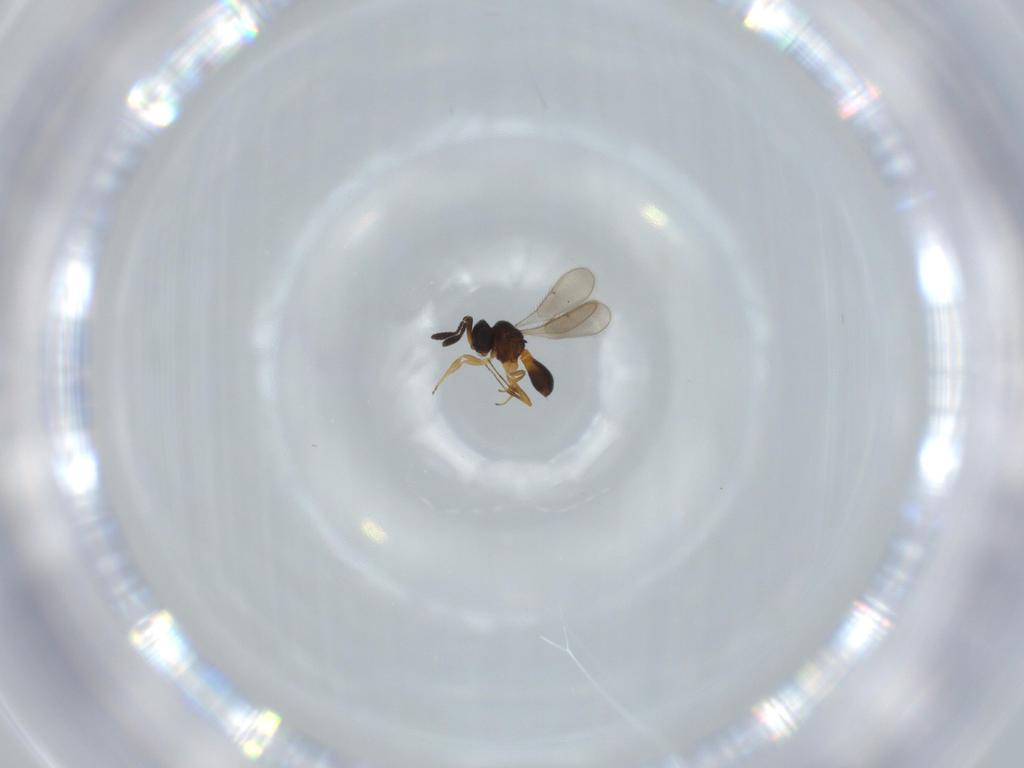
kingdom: Animalia
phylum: Arthropoda
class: Insecta
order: Hymenoptera
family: Scelionidae
